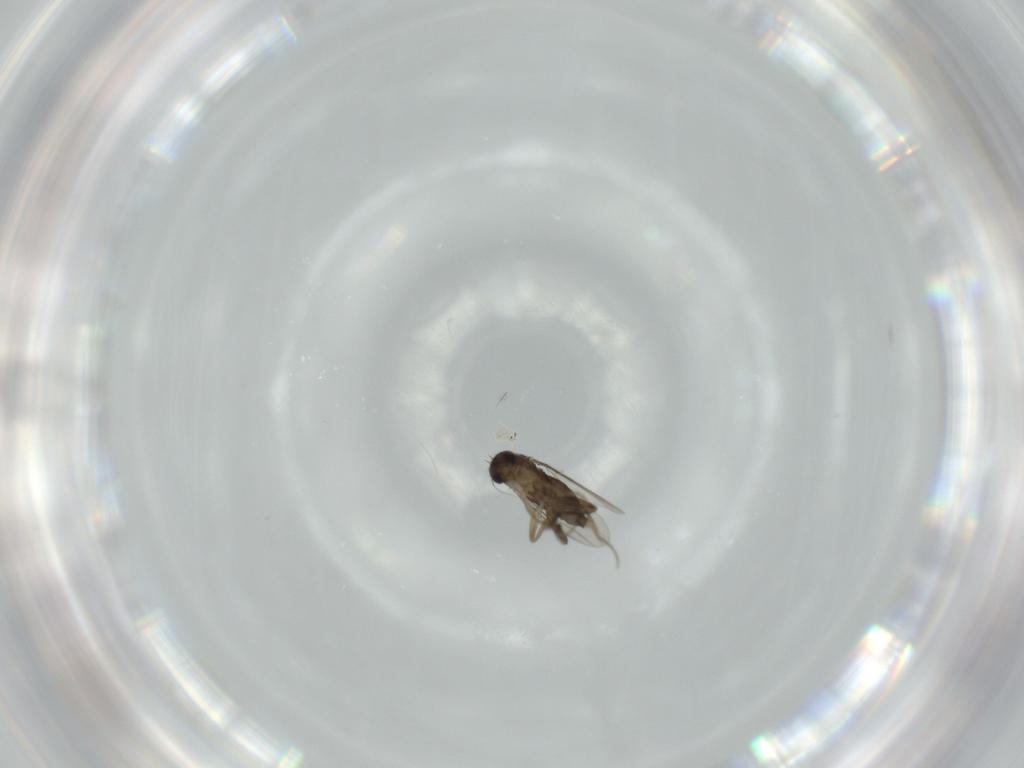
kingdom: Animalia
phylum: Arthropoda
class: Insecta
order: Diptera
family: Phoridae
